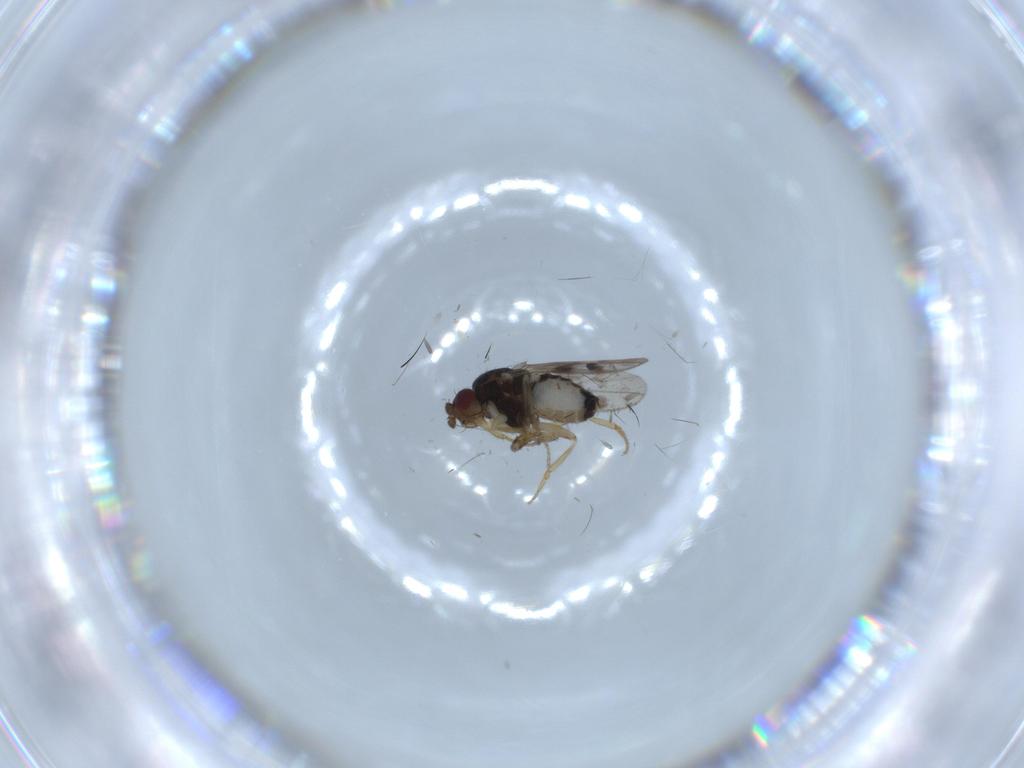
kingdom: Animalia
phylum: Arthropoda
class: Insecta
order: Diptera
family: Sphaeroceridae
